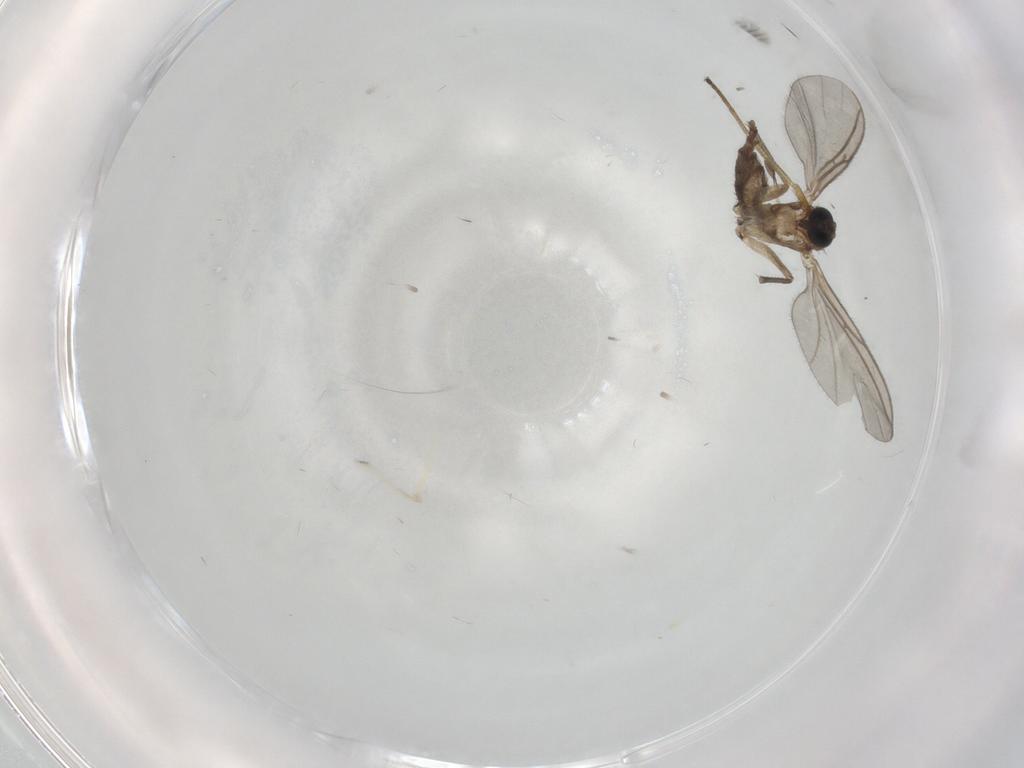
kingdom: Animalia
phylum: Arthropoda
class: Insecta
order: Diptera
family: Sciaridae
